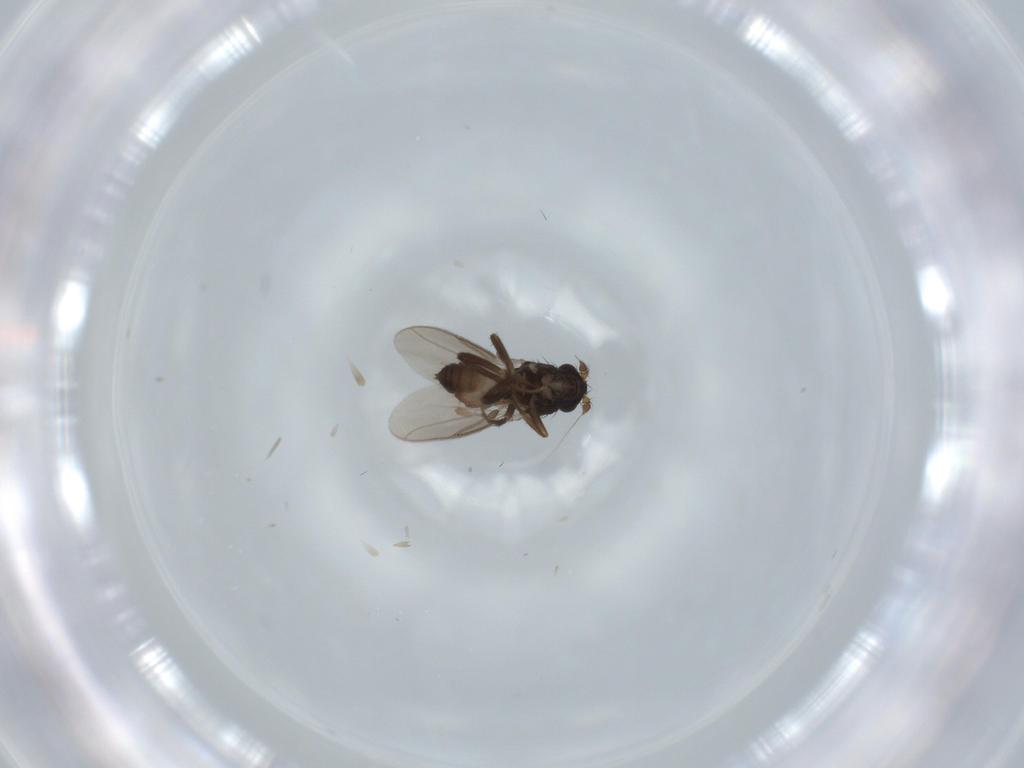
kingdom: Animalia
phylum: Arthropoda
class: Insecta
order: Diptera
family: Sphaeroceridae
